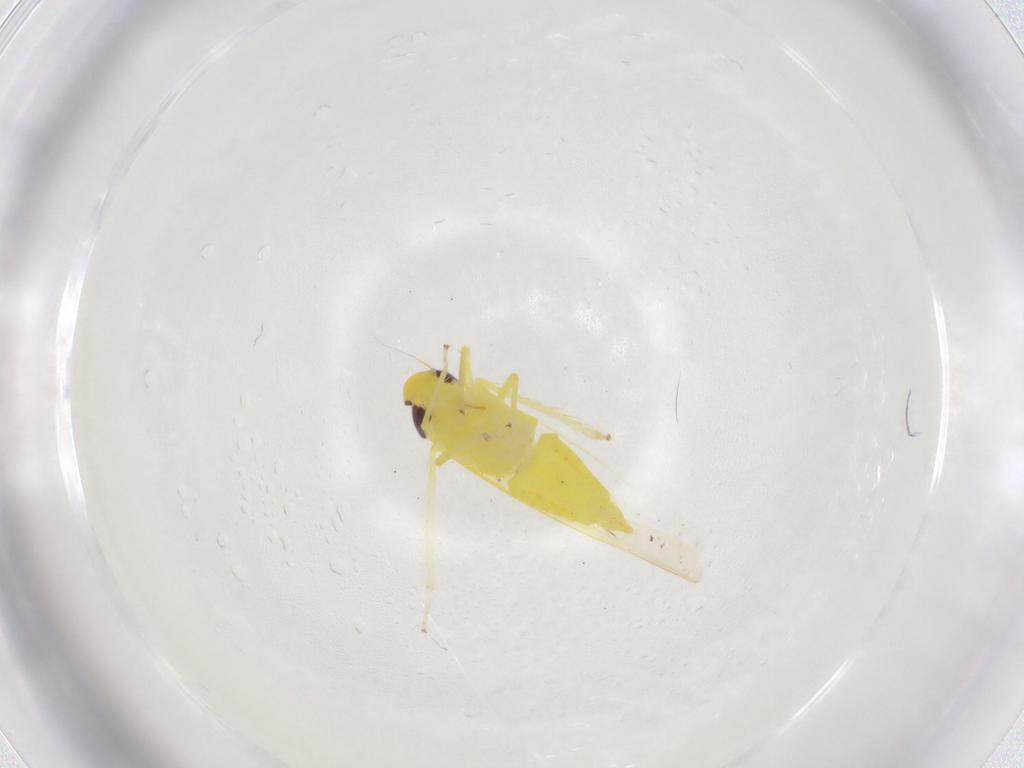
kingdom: Animalia
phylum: Arthropoda
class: Insecta
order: Hemiptera
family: Cicadellidae
